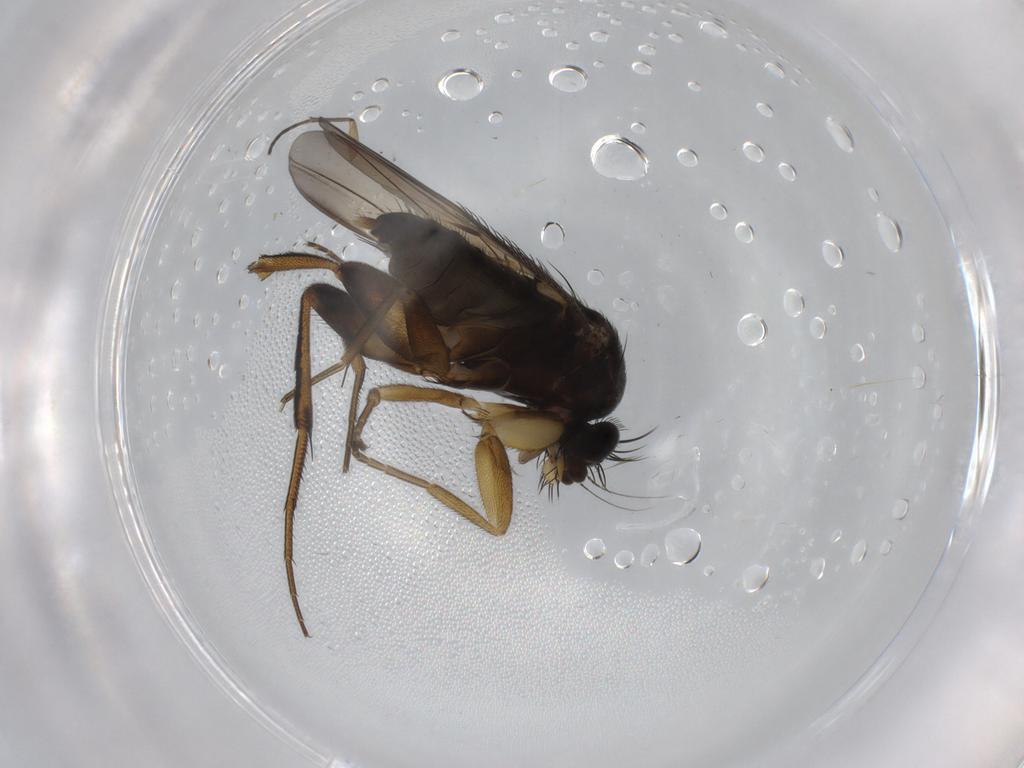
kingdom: Animalia
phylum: Arthropoda
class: Insecta
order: Diptera
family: Phoridae
